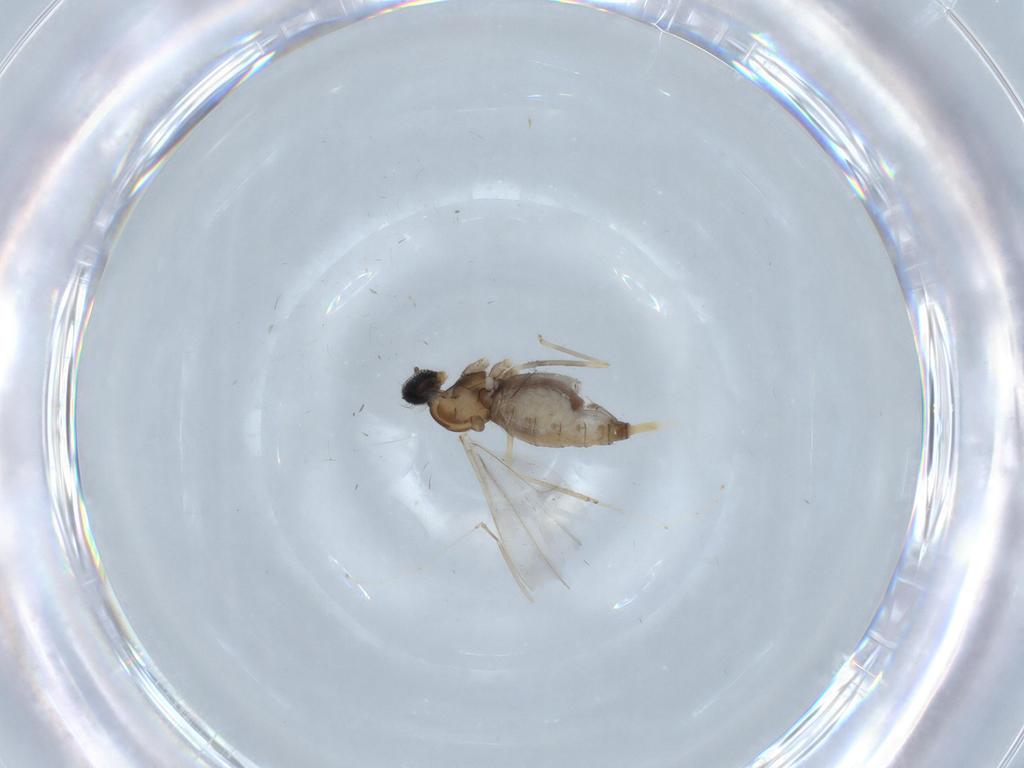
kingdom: Animalia
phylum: Arthropoda
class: Insecta
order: Diptera
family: Cecidomyiidae
